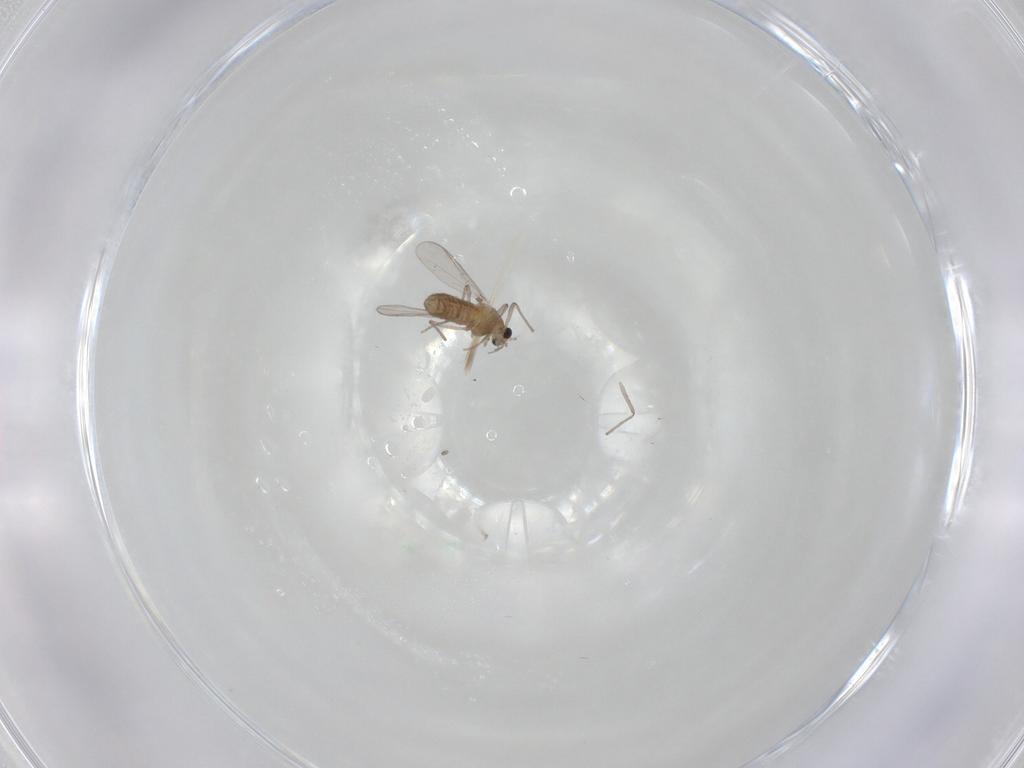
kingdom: Animalia
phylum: Arthropoda
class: Insecta
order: Diptera
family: Chironomidae
